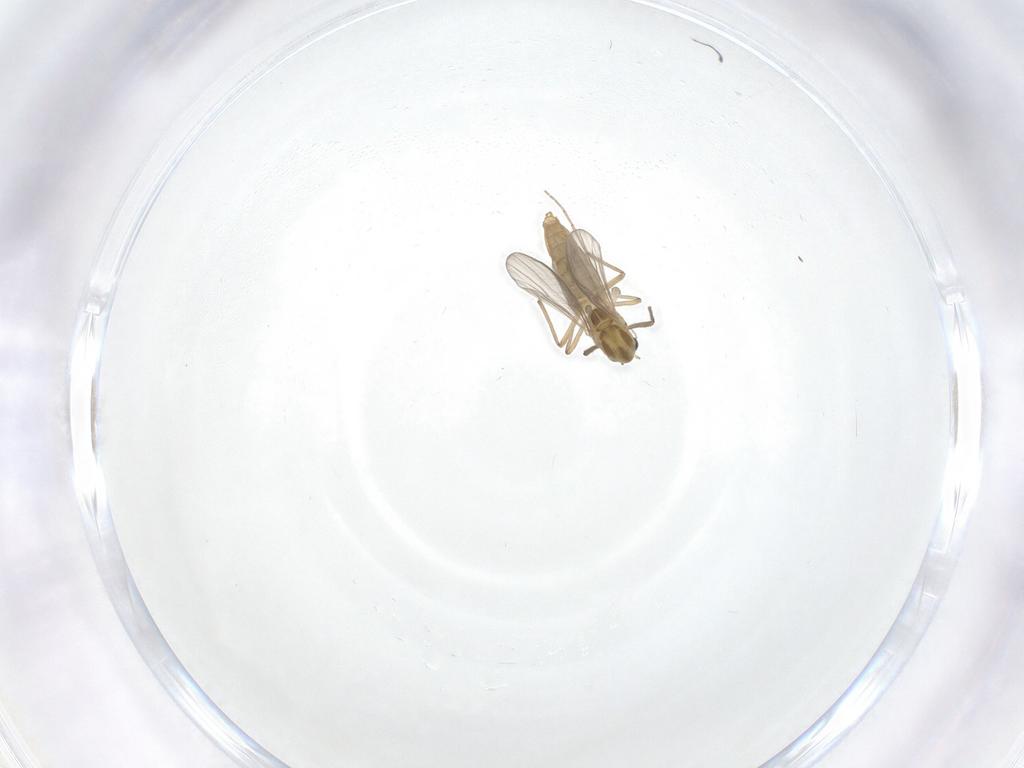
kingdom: Animalia
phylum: Arthropoda
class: Insecta
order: Diptera
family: Chironomidae
